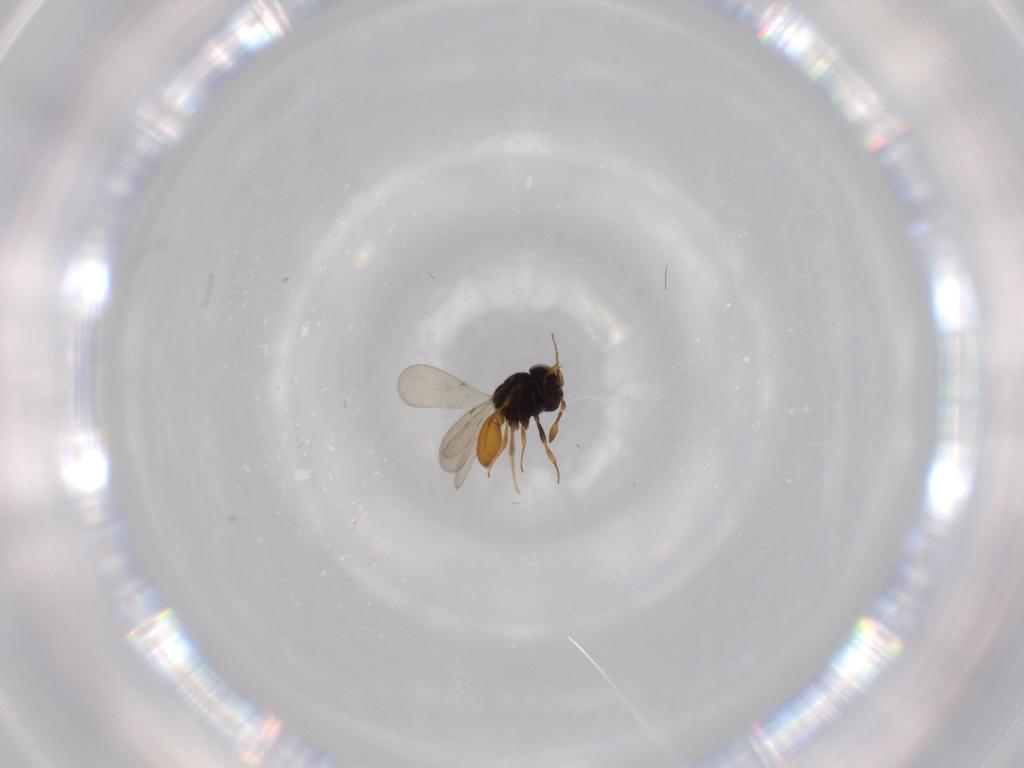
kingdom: Animalia
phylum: Arthropoda
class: Insecta
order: Hymenoptera
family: Scelionidae
